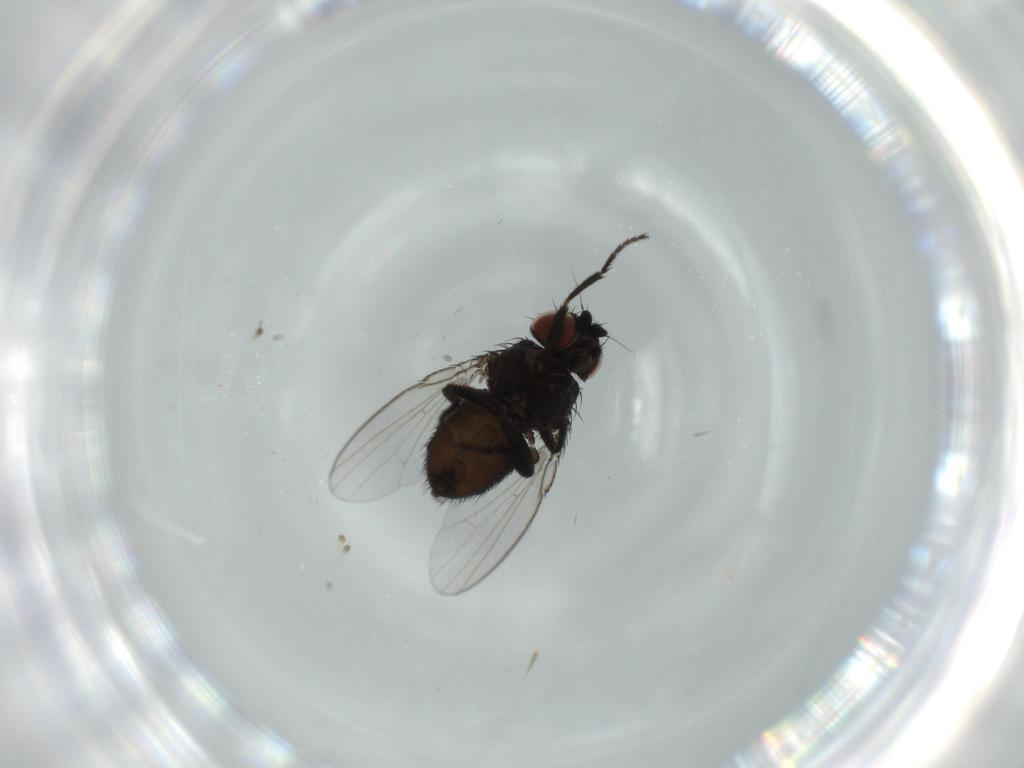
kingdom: Animalia
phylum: Arthropoda
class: Insecta
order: Diptera
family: Milichiidae
